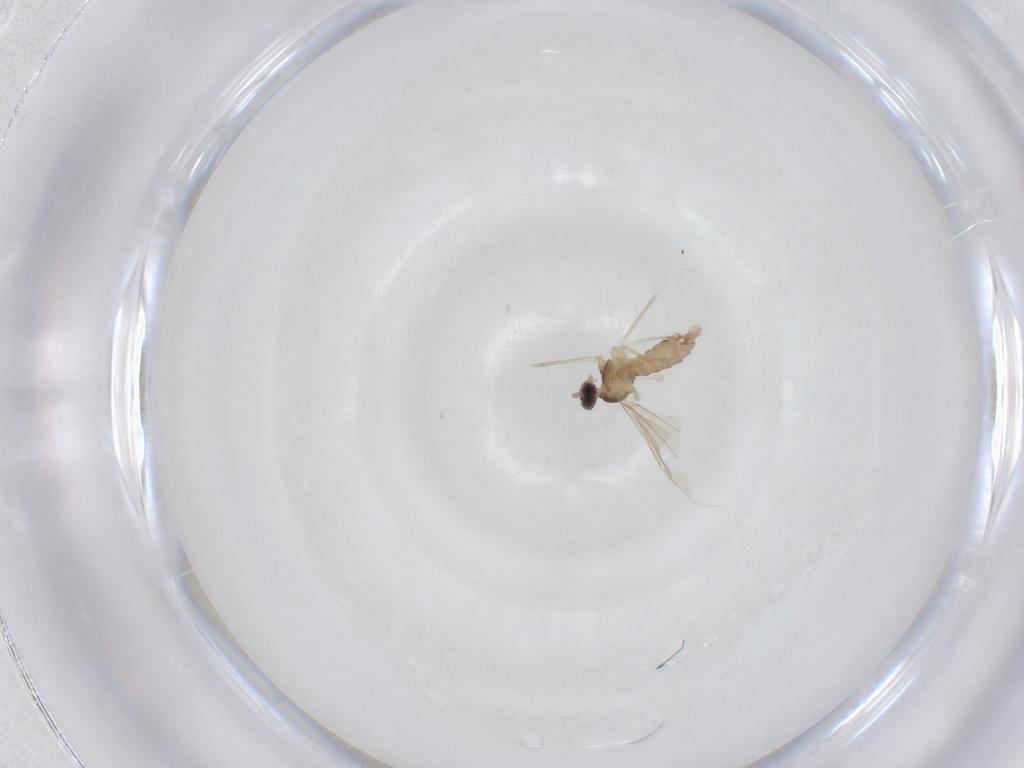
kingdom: Animalia
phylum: Arthropoda
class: Insecta
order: Diptera
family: Cecidomyiidae
